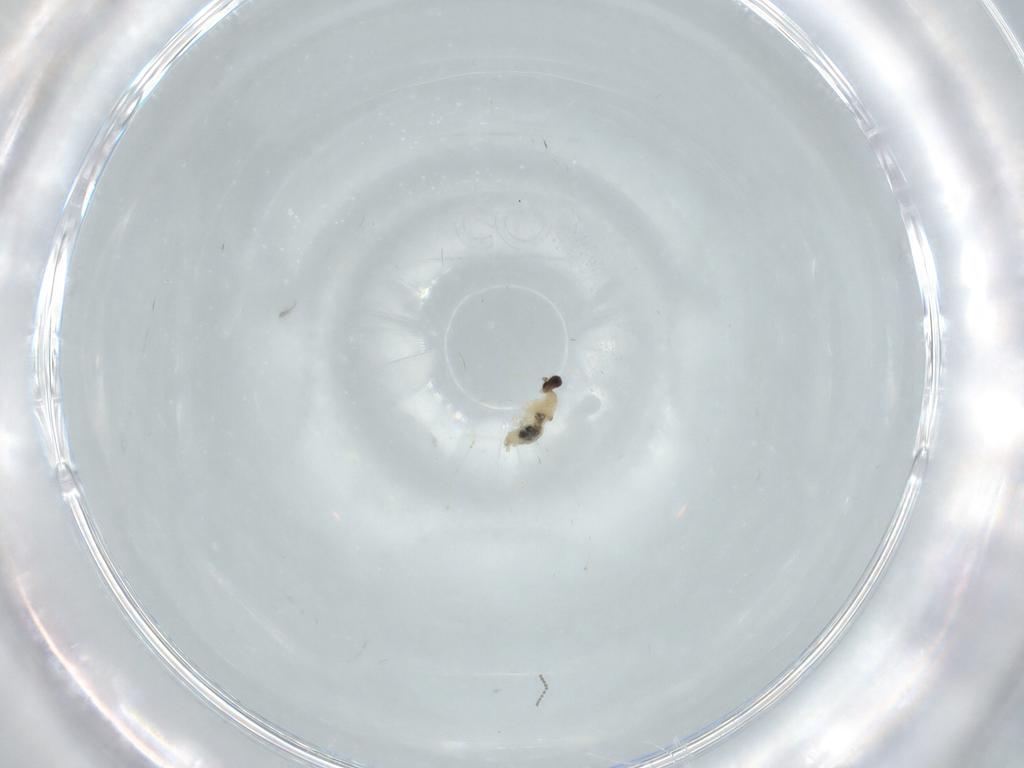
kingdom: Animalia
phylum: Arthropoda
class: Insecta
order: Diptera
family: Cecidomyiidae
